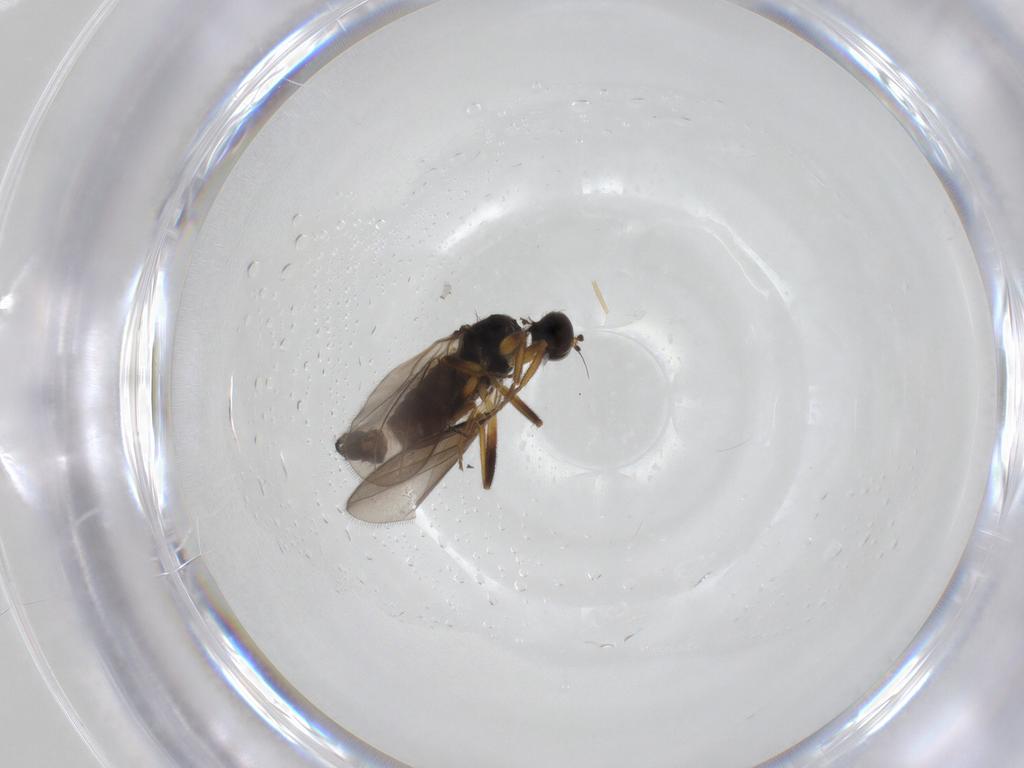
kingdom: Animalia
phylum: Arthropoda
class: Insecta
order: Diptera
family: Hybotidae
